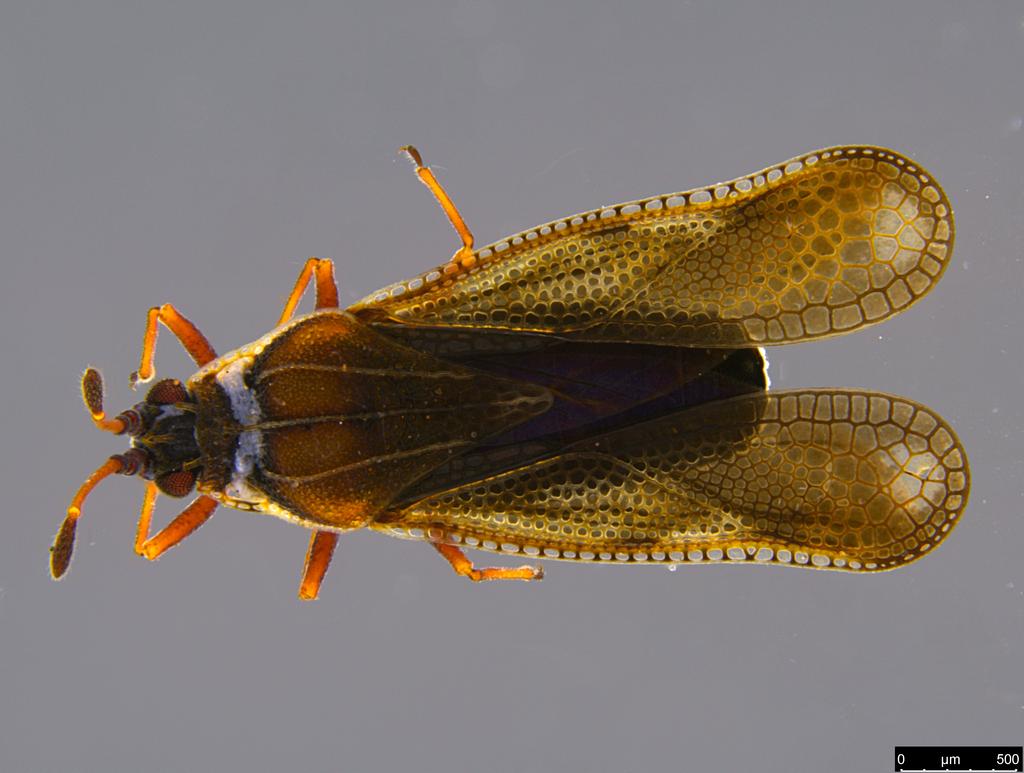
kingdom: Animalia
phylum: Arthropoda
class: Insecta
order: Hemiptera
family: Tingidae
